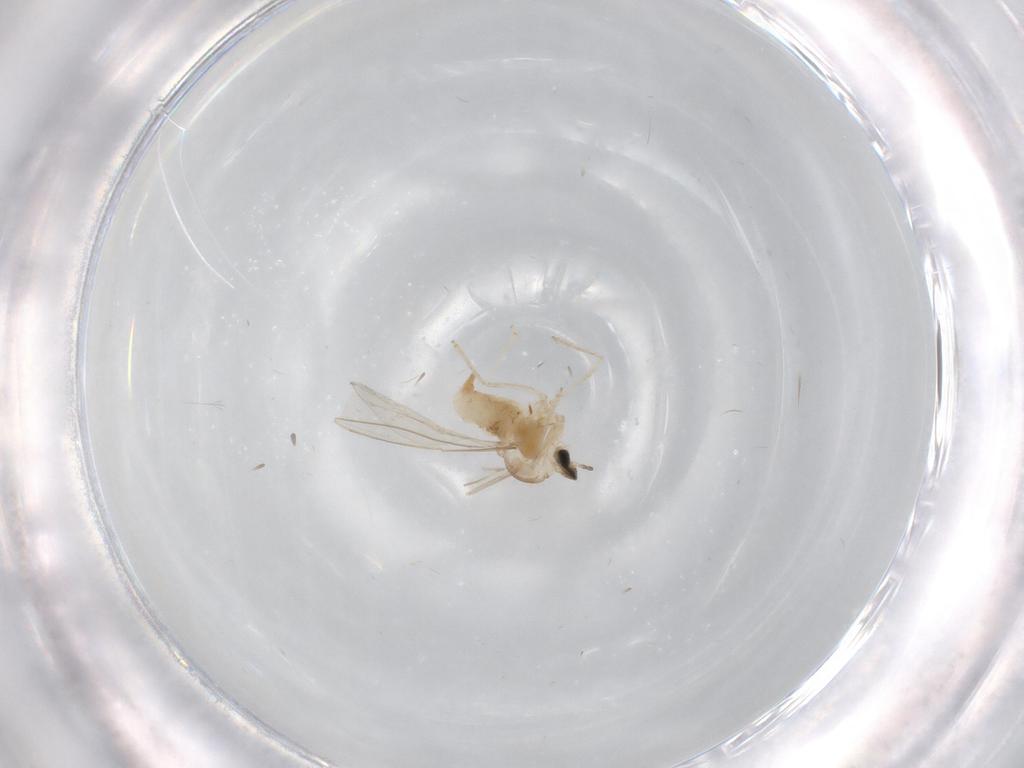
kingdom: Animalia
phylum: Arthropoda
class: Insecta
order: Diptera
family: Cecidomyiidae
